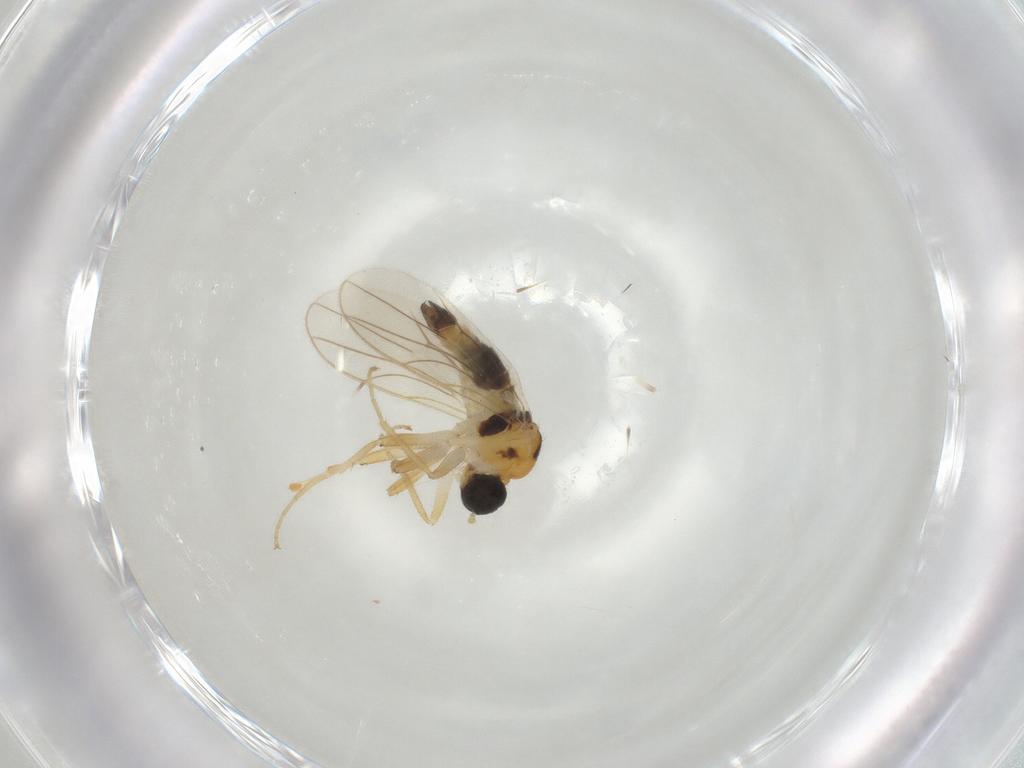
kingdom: Animalia
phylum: Arthropoda
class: Insecta
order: Diptera
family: Hybotidae
